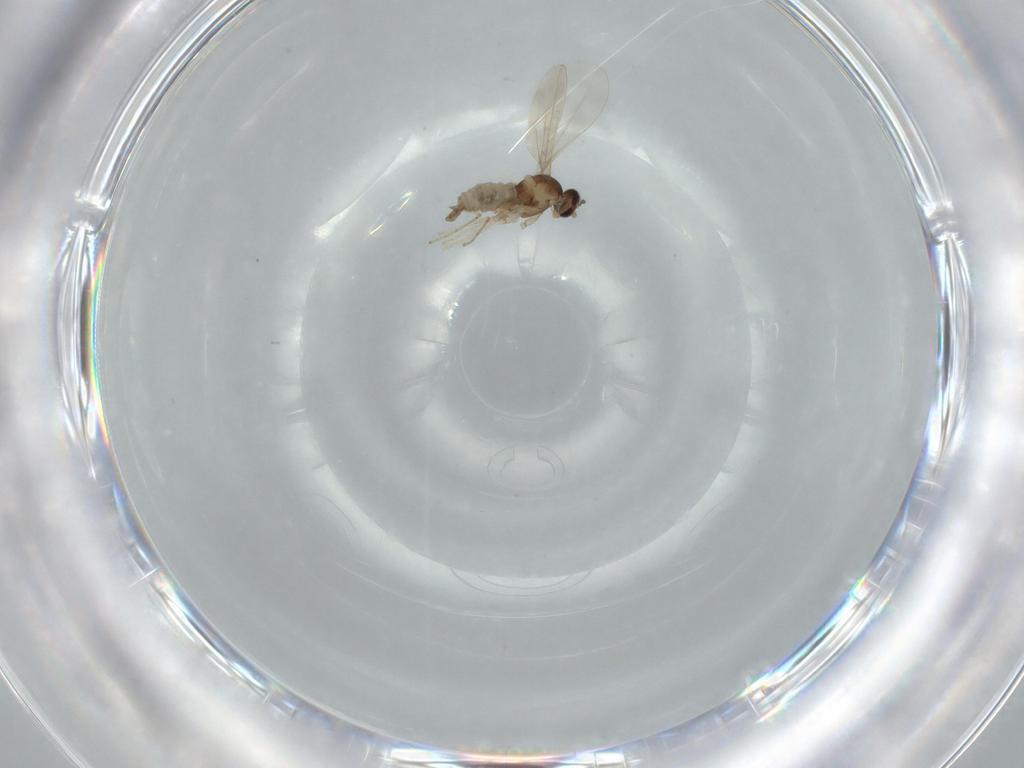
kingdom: Animalia
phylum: Arthropoda
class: Insecta
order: Diptera
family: Cecidomyiidae
